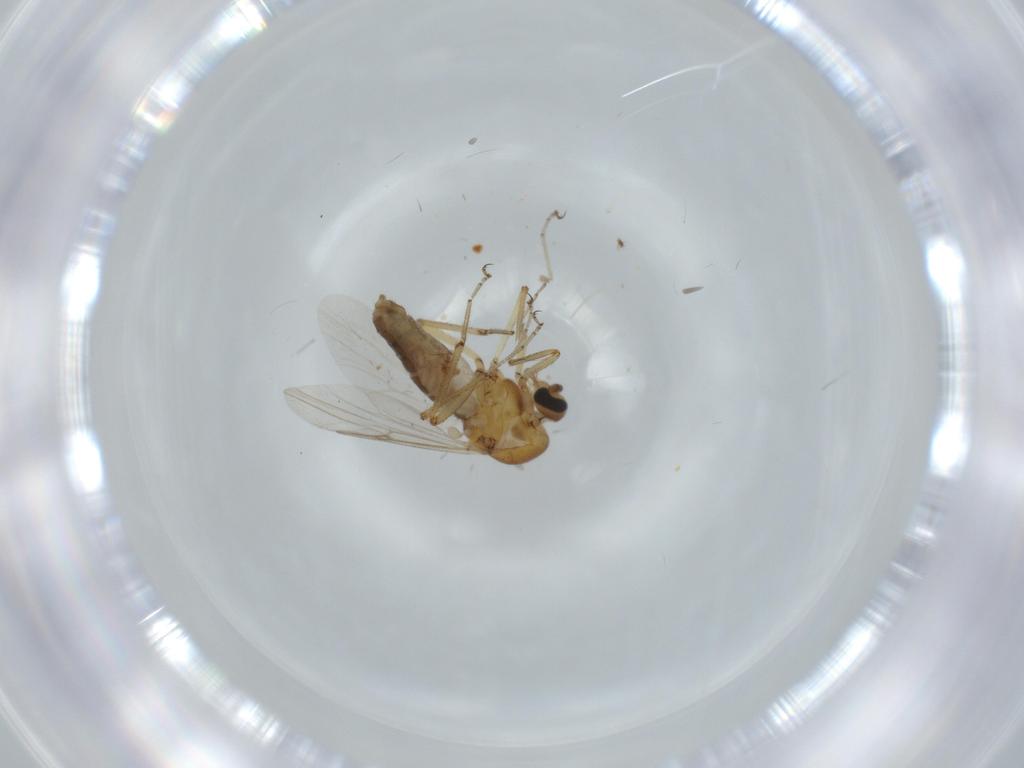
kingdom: Animalia
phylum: Arthropoda
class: Insecta
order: Diptera
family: Ceratopogonidae
